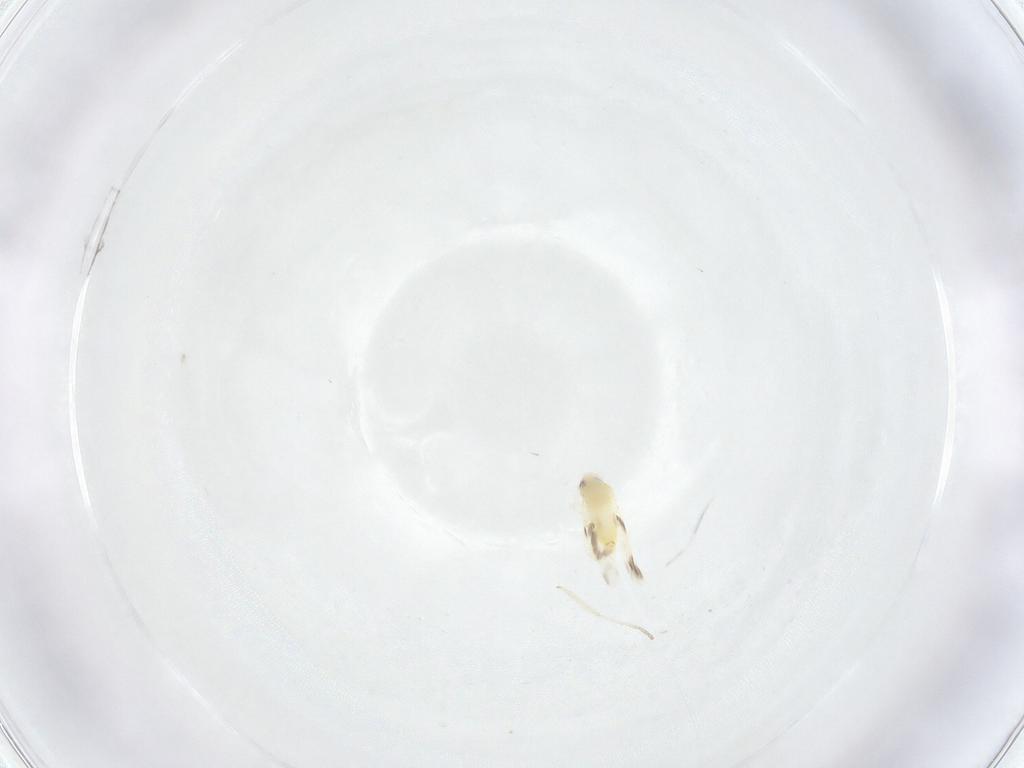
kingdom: Animalia
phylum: Arthropoda
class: Insecta
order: Hemiptera
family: Aleyrodidae
